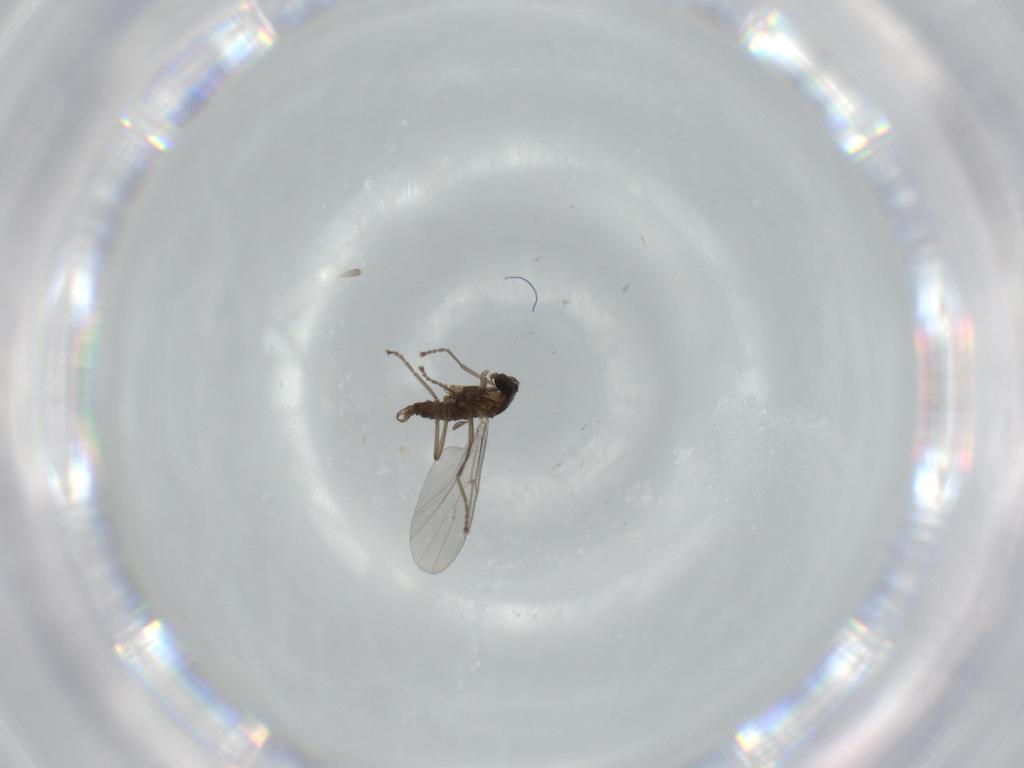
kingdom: Animalia
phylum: Arthropoda
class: Insecta
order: Diptera
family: Cecidomyiidae
